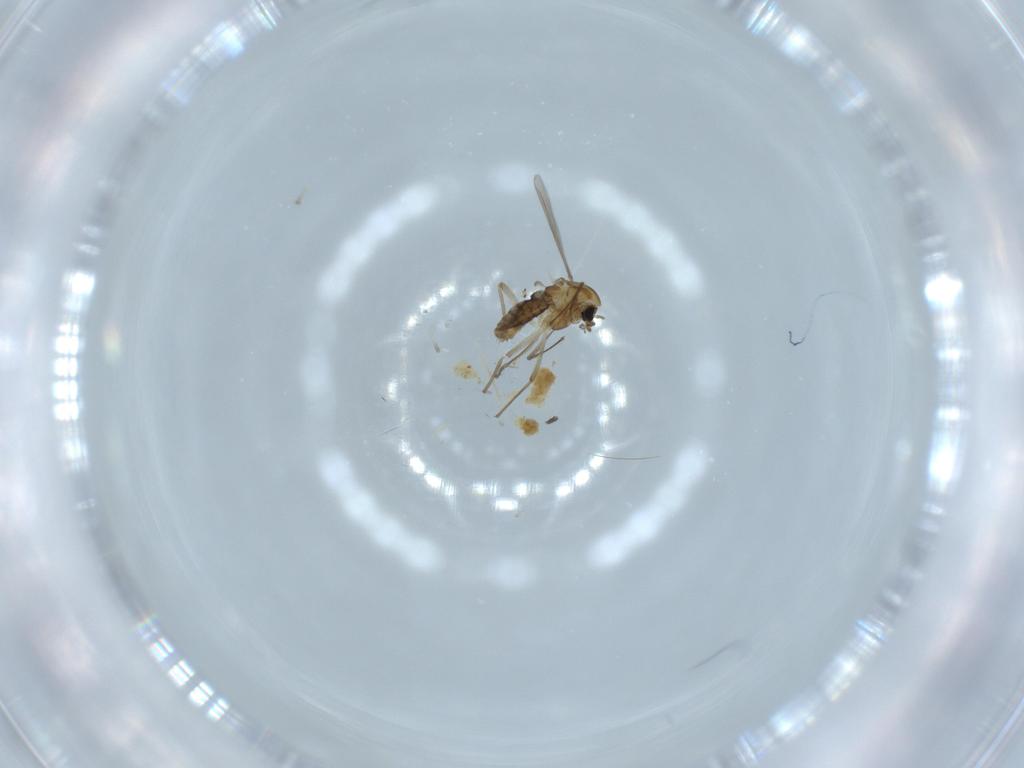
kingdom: Animalia
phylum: Arthropoda
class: Insecta
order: Diptera
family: Chironomidae
